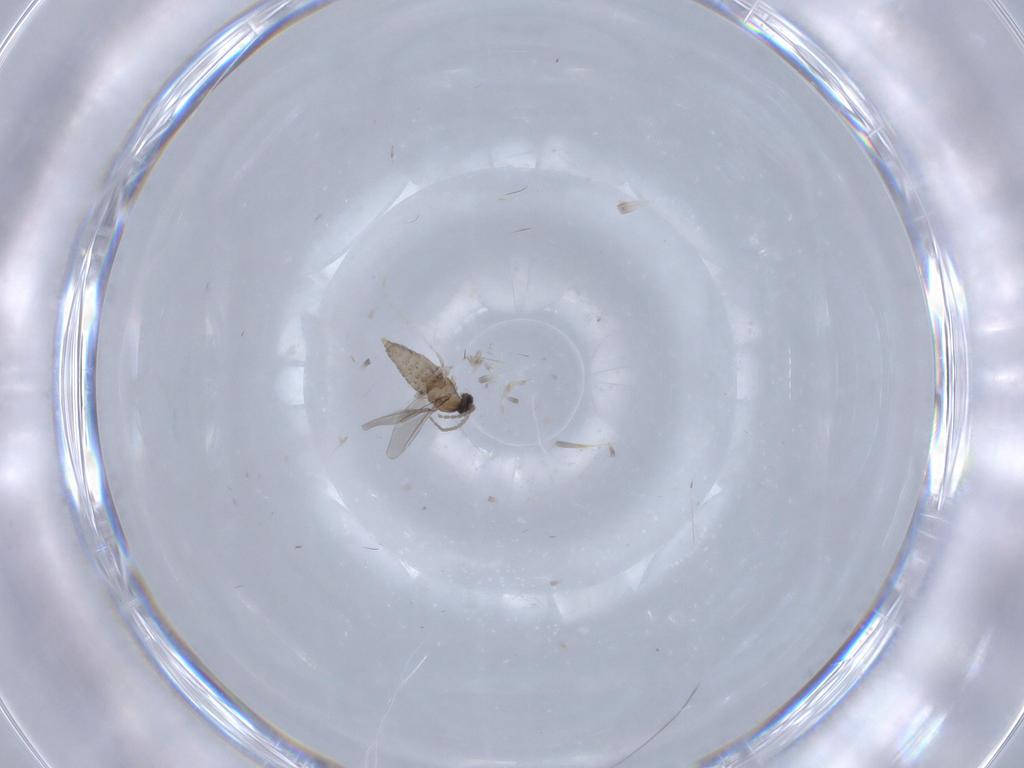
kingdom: Animalia
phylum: Arthropoda
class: Insecta
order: Diptera
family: Cecidomyiidae
